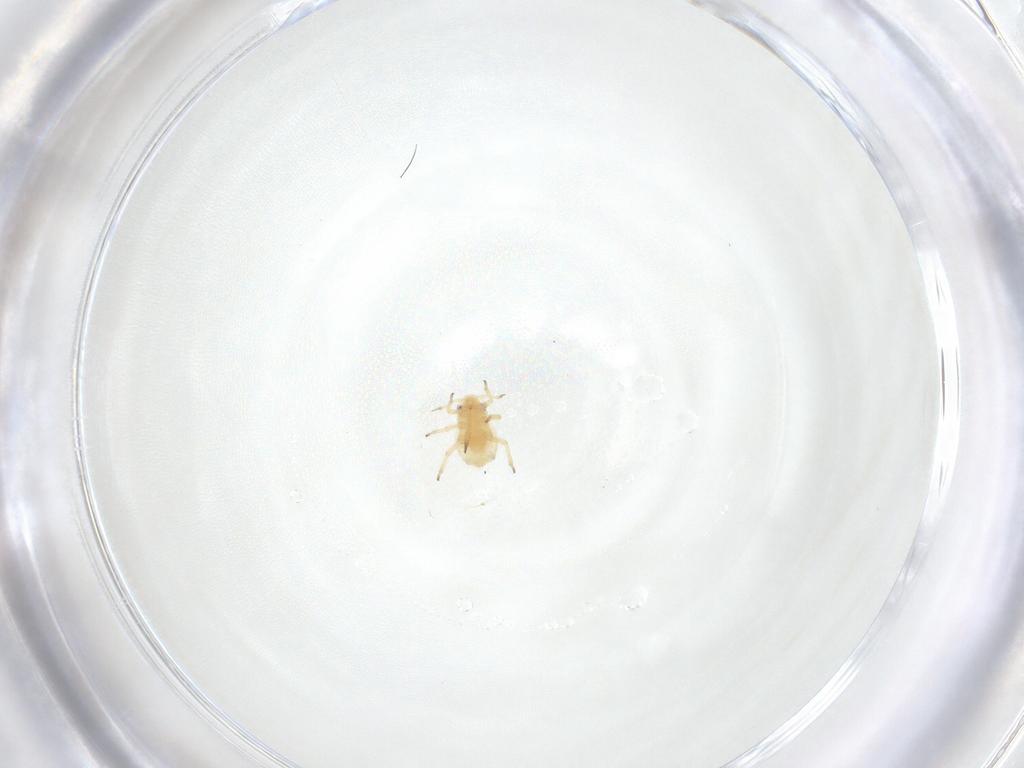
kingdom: Animalia
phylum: Arthropoda
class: Insecta
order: Hemiptera
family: Aphididae
